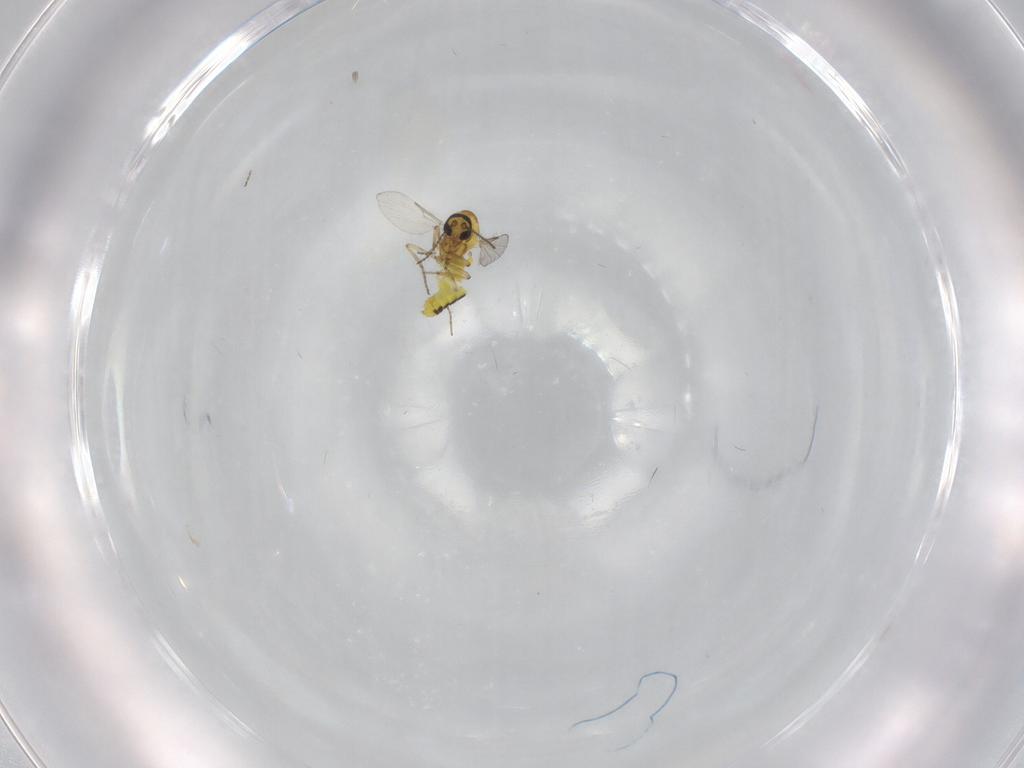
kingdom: Animalia
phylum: Arthropoda
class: Insecta
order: Diptera
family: Ceratopogonidae
